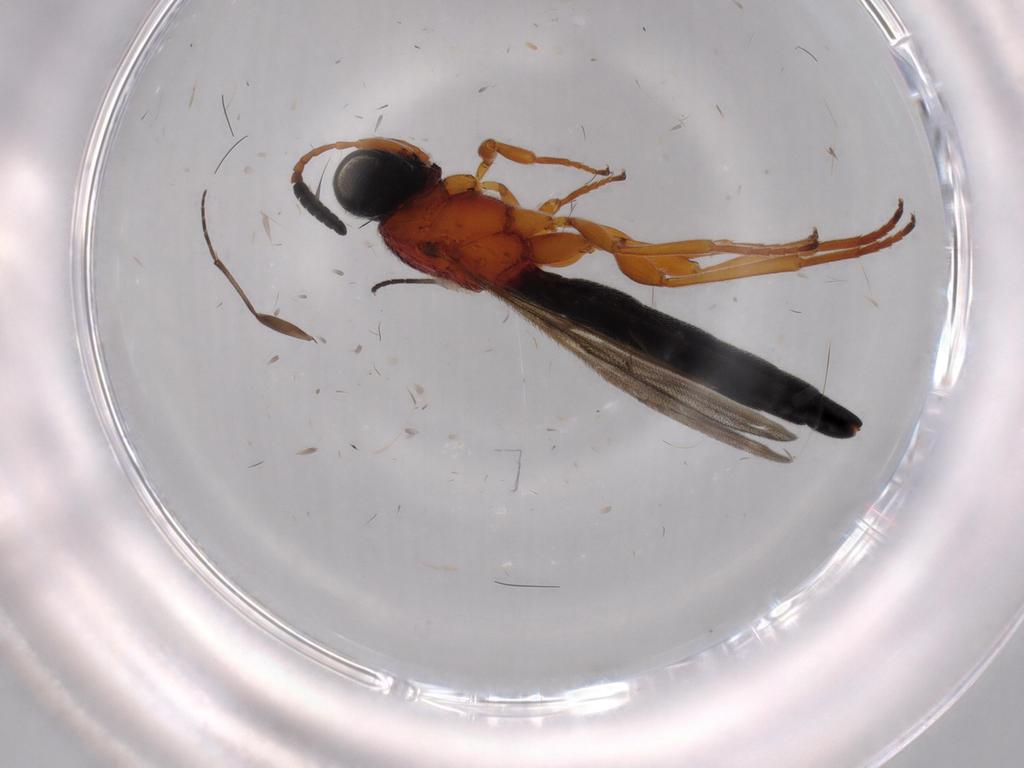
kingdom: Animalia
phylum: Arthropoda
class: Insecta
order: Hymenoptera
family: Scelionidae
